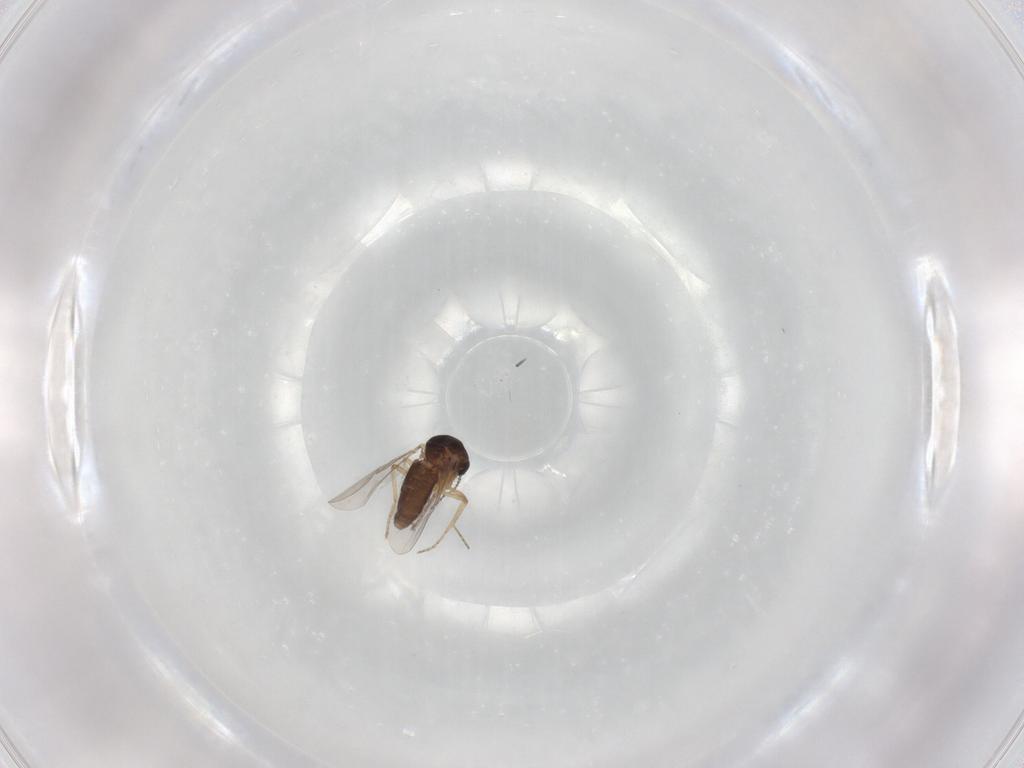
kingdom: Animalia
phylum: Arthropoda
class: Insecta
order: Diptera
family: Ceratopogonidae
